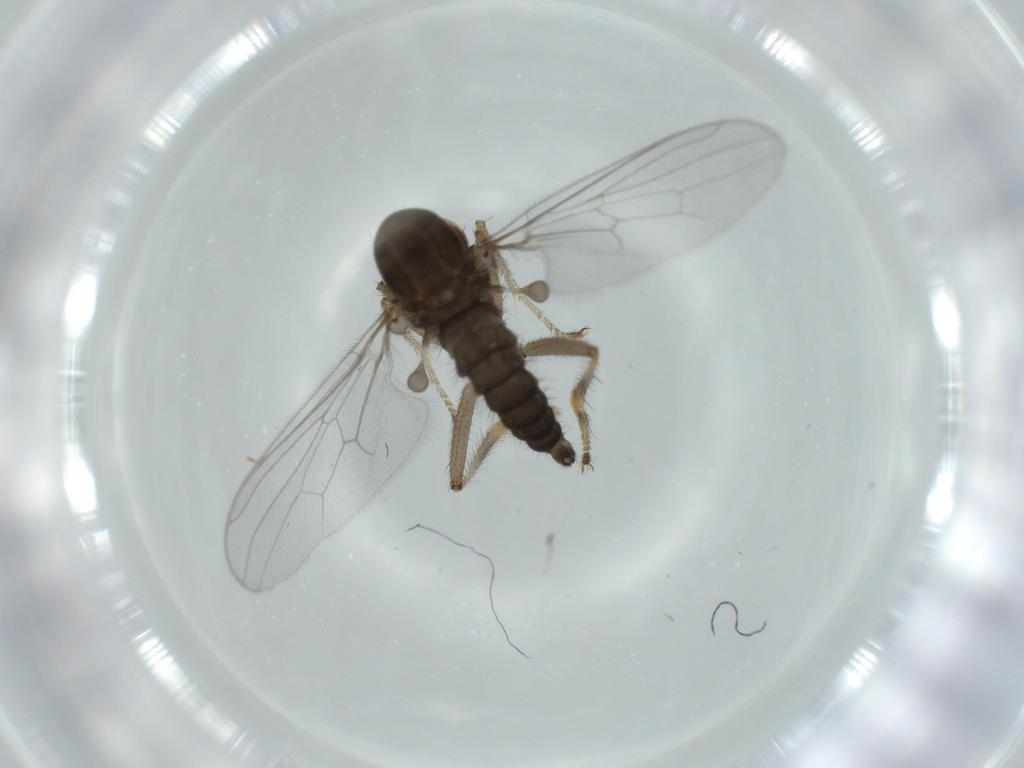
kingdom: Animalia
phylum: Arthropoda
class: Insecta
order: Diptera
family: Hybotidae
